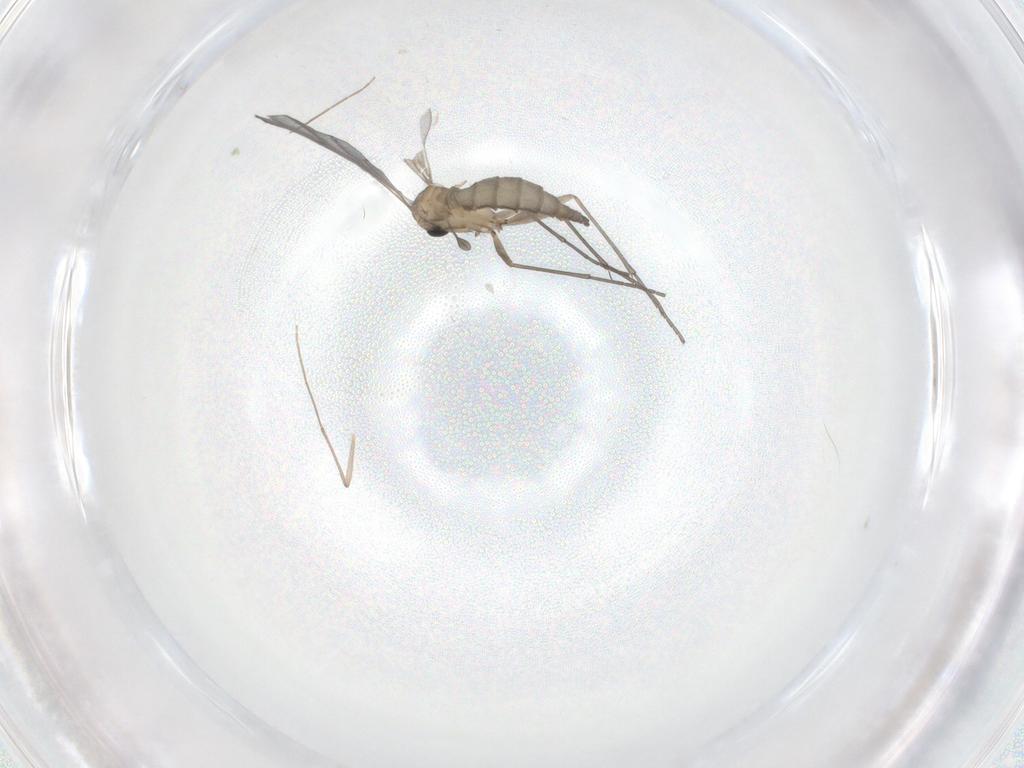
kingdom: Animalia
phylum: Arthropoda
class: Insecta
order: Diptera
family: Sciaridae
